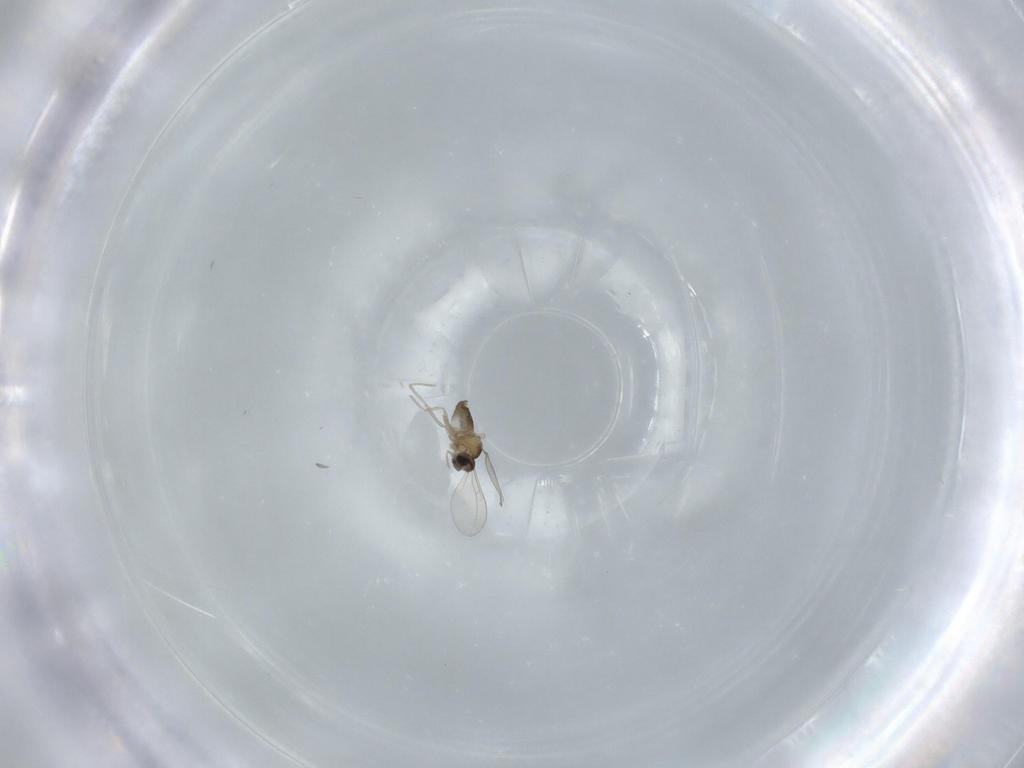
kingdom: Animalia
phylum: Arthropoda
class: Insecta
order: Diptera
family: Cecidomyiidae
